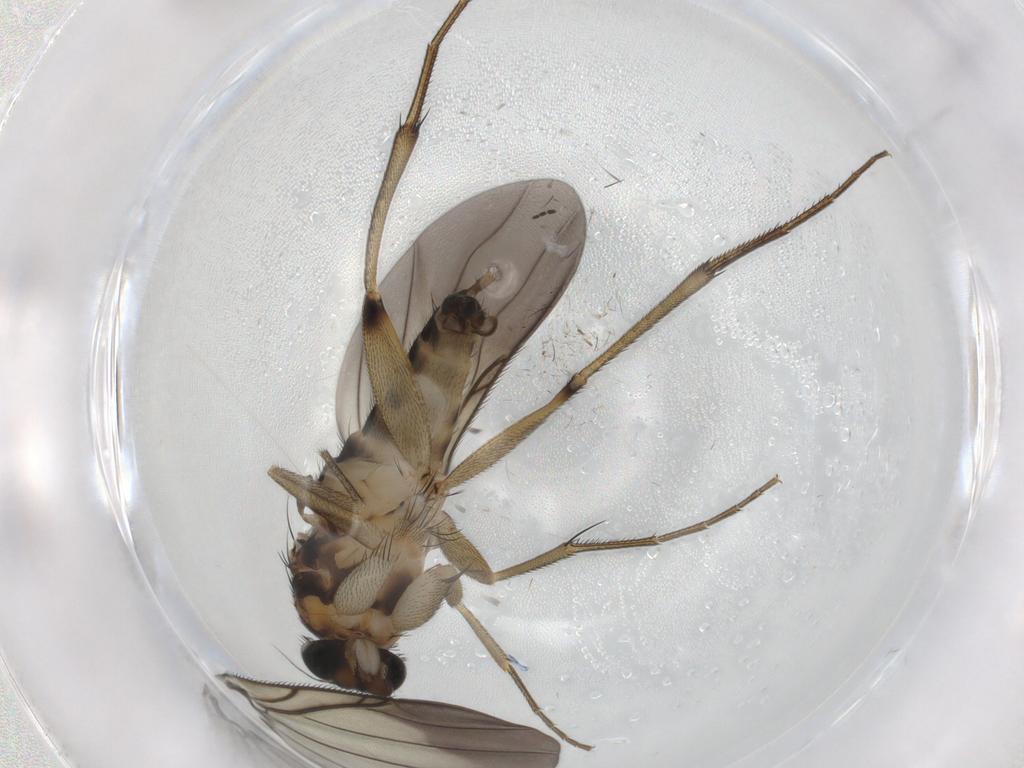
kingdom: Animalia
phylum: Arthropoda
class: Insecta
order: Diptera
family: Phoridae
